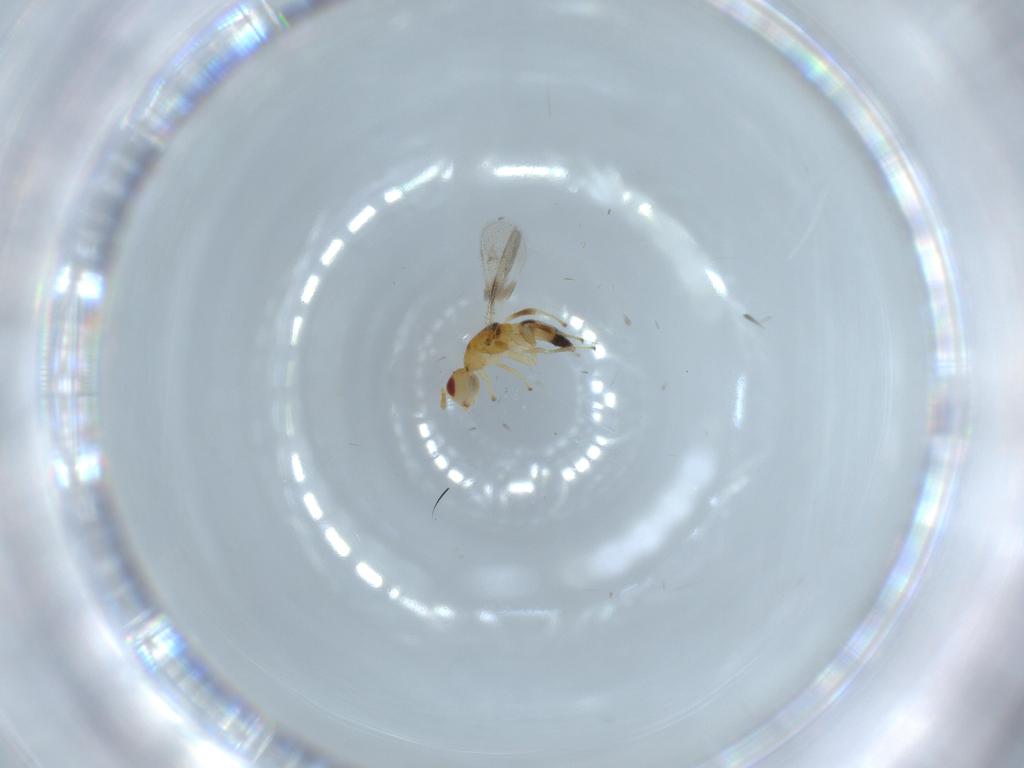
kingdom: Animalia
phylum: Arthropoda
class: Insecta
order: Hymenoptera
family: Torymidae
